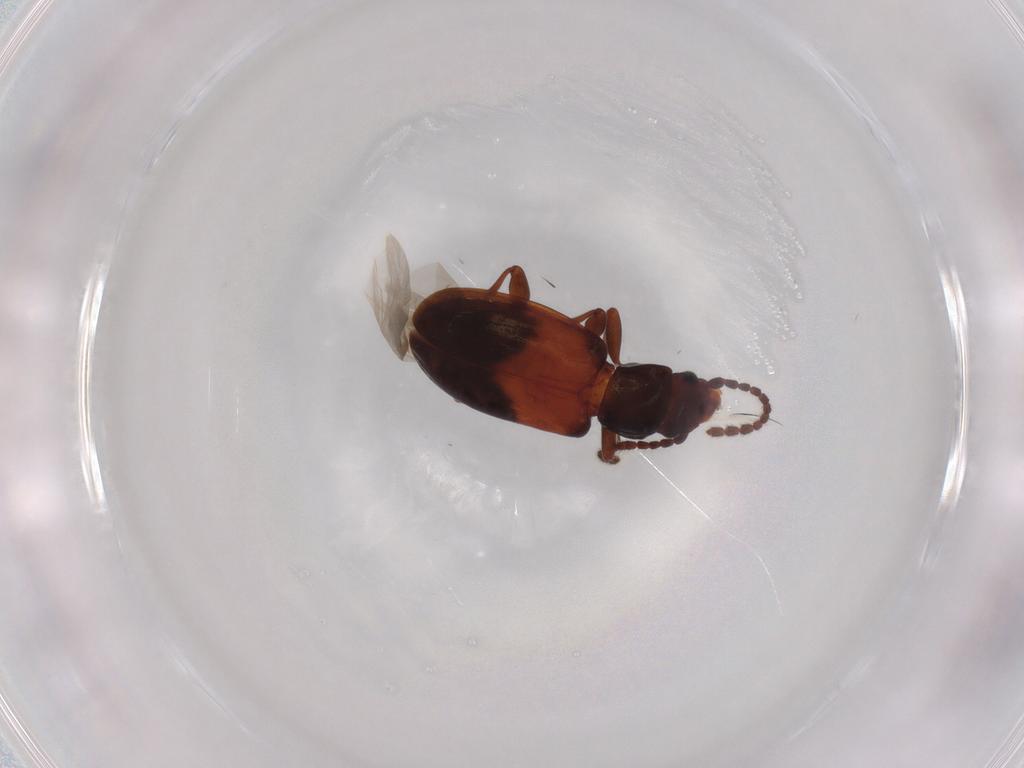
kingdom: Animalia
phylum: Arthropoda
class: Insecta
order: Coleoptera
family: Laemophloeidae
